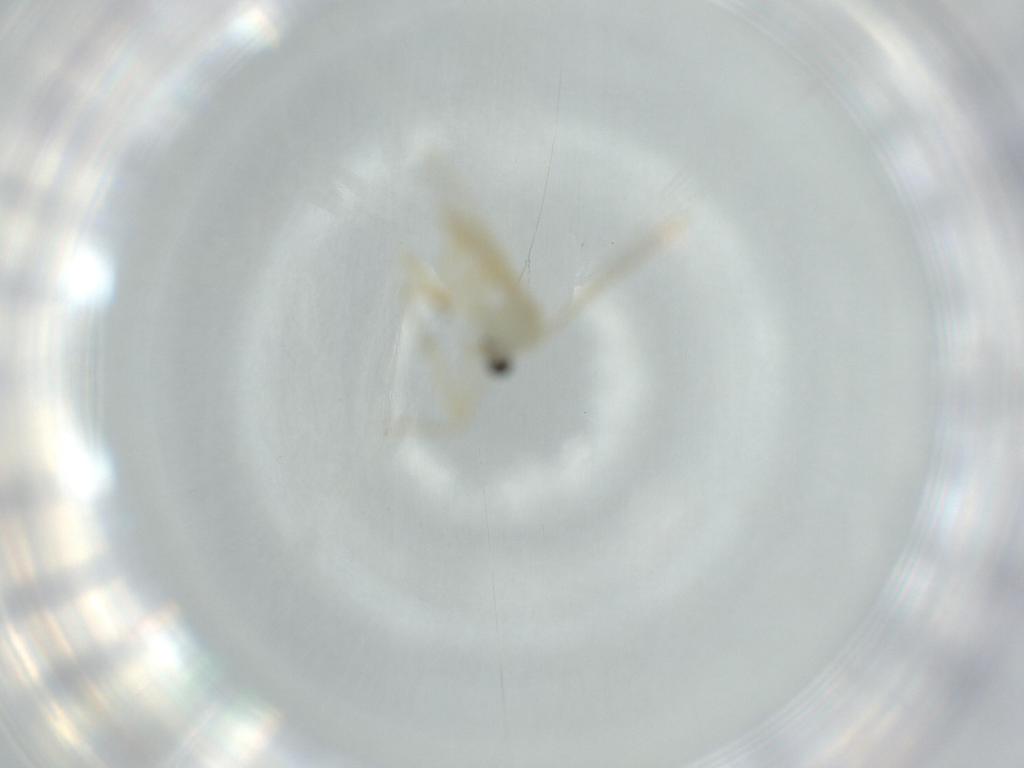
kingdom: Animalia
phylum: Arthropoda
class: Insecta
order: Diptera
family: Chironomidae
